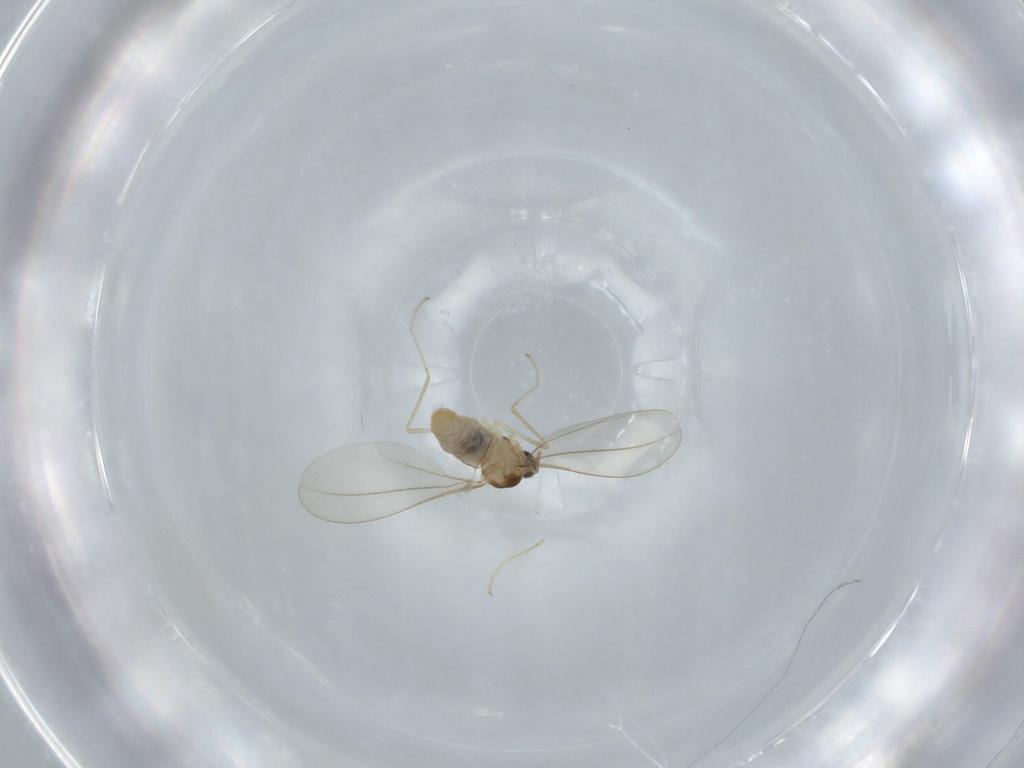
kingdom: Animalia
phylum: Arthropoda
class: Insecta
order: Diptera
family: Cecidomyiidae
